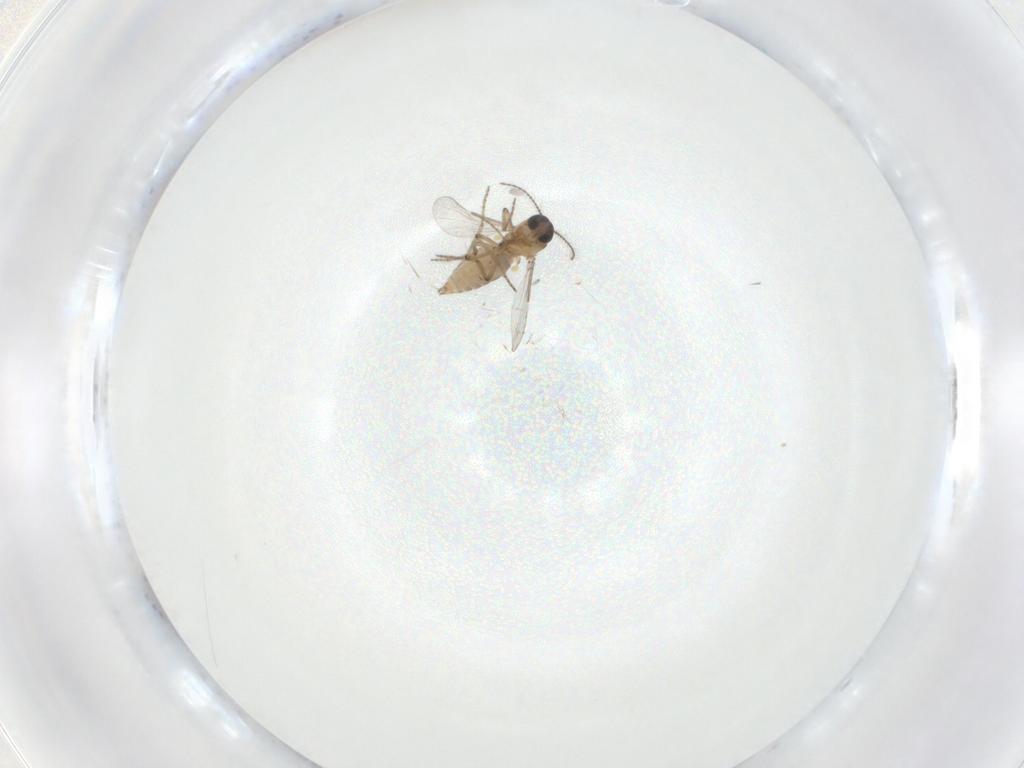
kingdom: Animalia
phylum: Arthropoda
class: Insecta
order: Diptera
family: Ceratopogonidae
